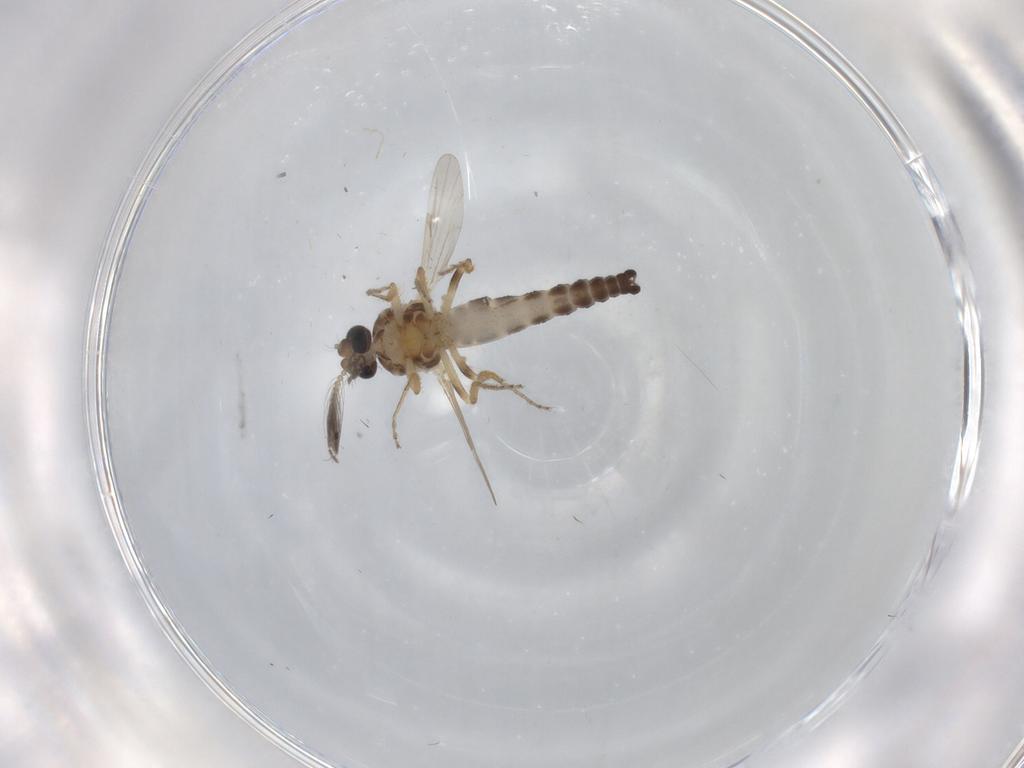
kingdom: Animalia
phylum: Arthropoda
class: Insecta
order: Diptera
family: Ceratopogonidae
